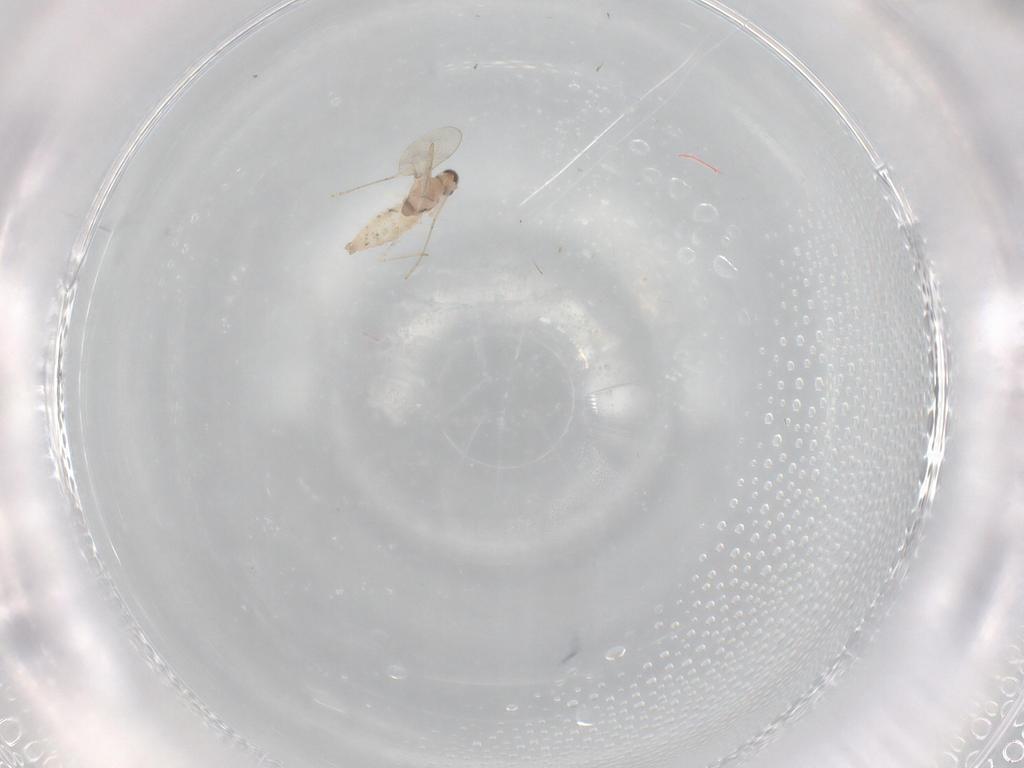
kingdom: Animalia
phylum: Arthropoda
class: Insecta
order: Diptera
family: Cecidomyiidae
